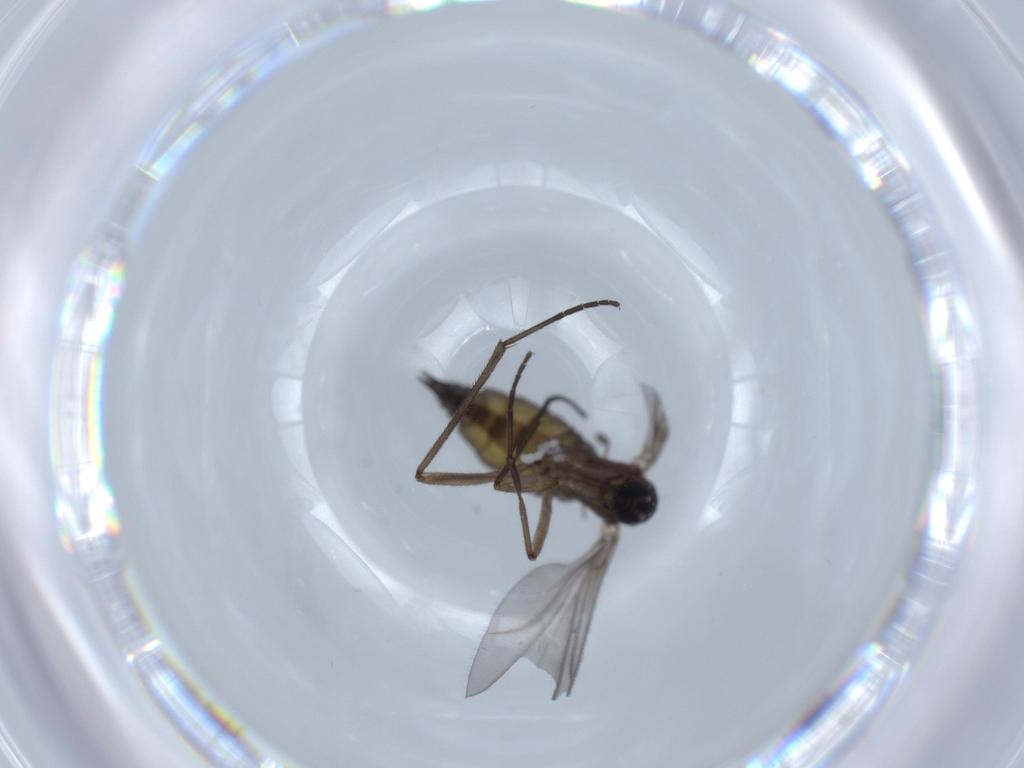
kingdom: Animalia
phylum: Arthropoda
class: Insecta
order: Diptera
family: Sciaridae
